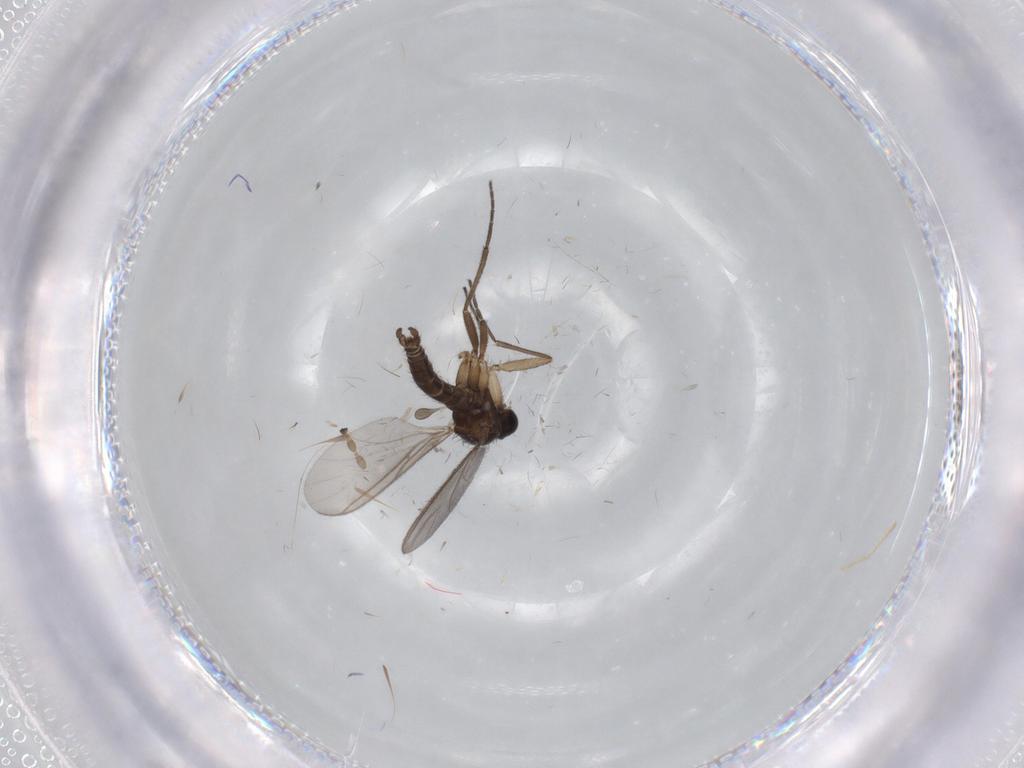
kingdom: Animalia
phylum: Arthropoda
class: Insecta
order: Diptera
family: Sciaridae
